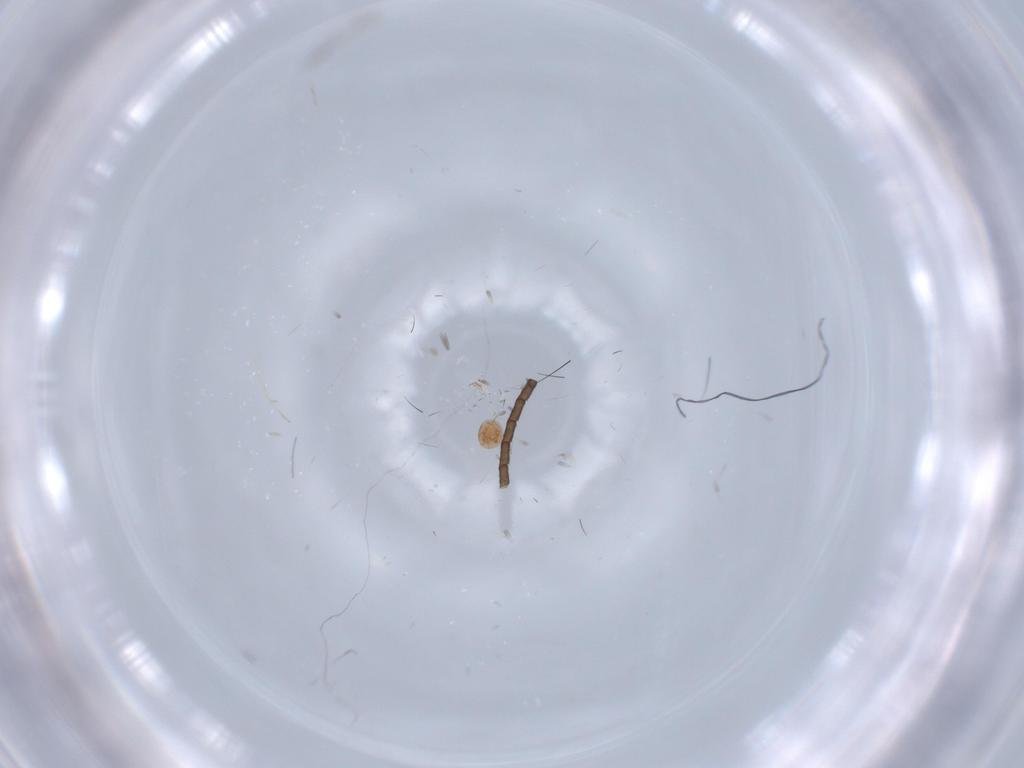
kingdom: Animalia
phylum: Arthropoda
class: Arachnida
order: Trombidiformes
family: Scutacaridae
